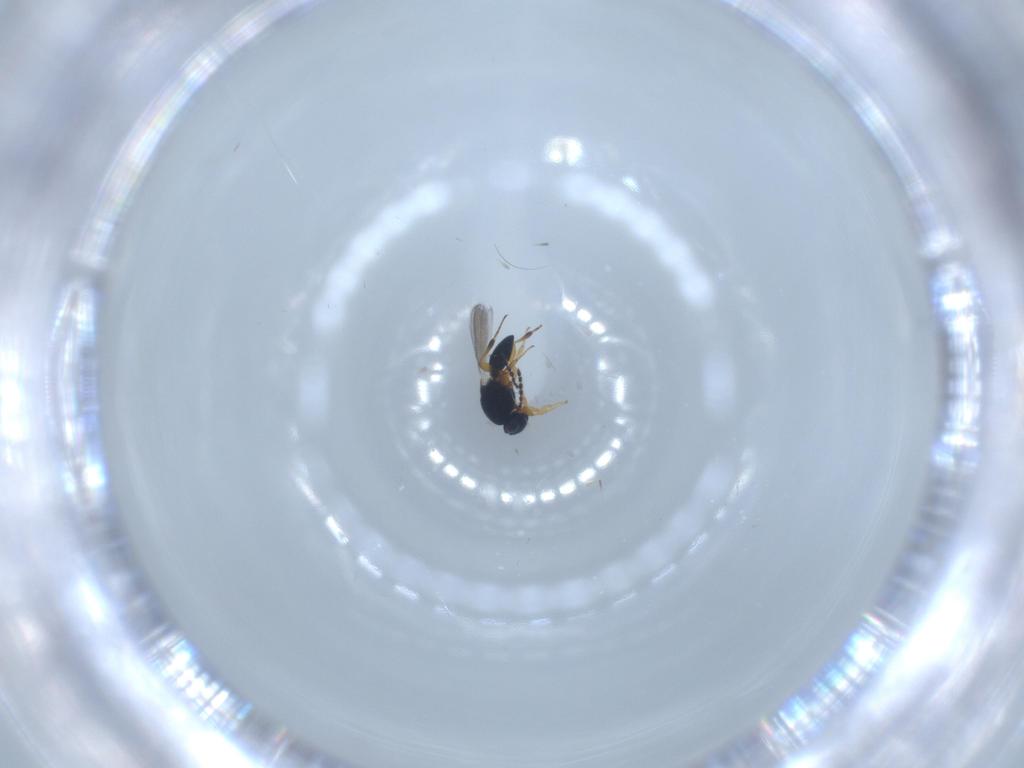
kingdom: Animalia
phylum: Arthropoda
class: Insecta
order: Hymenoptera
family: Platygastridae
